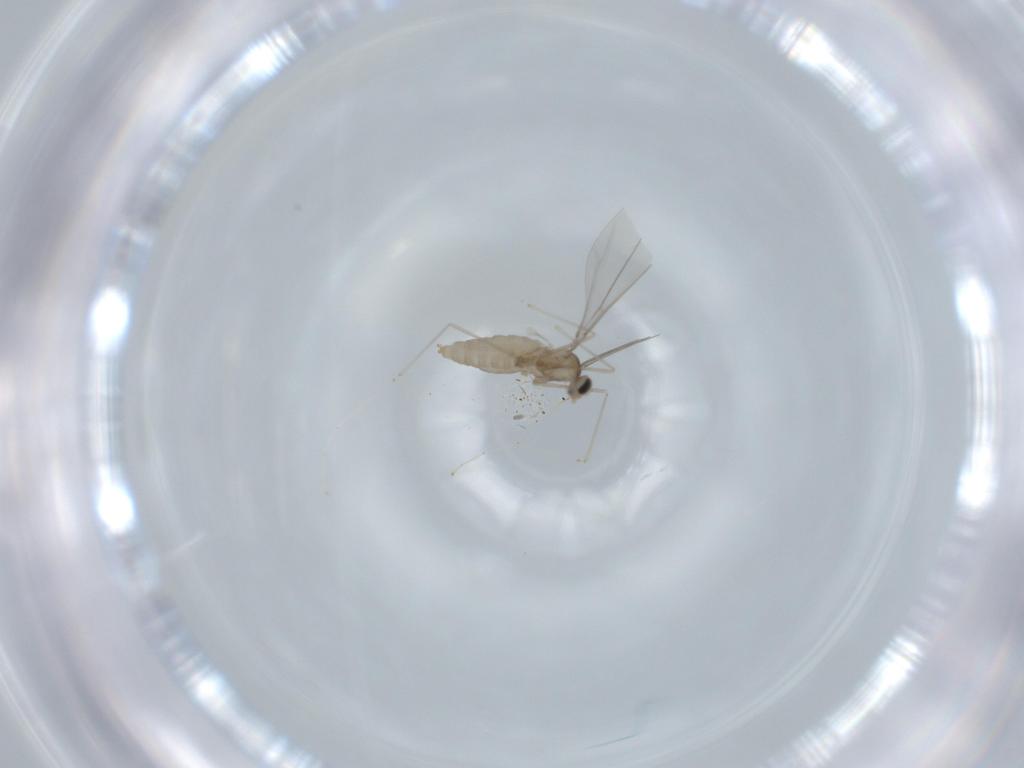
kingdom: Animalia
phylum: Arthropoda
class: Insecta
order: Diptera
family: Cecidomyiidae
